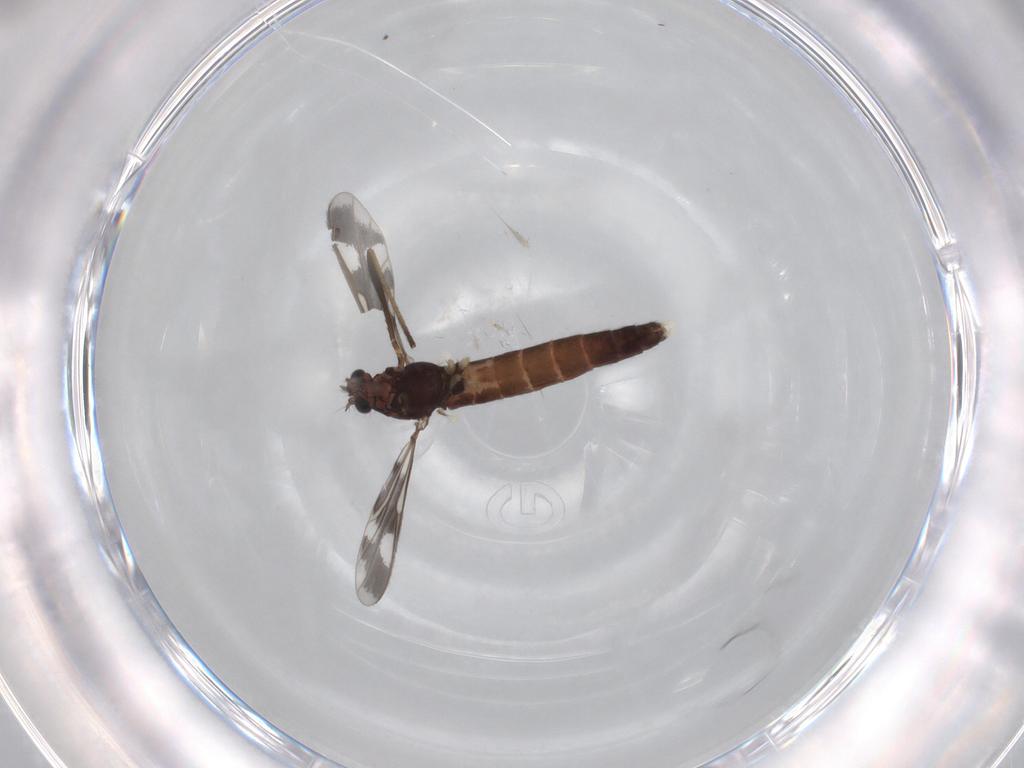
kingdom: Animalia
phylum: Arthropoda
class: Insecta
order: Diptera
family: Chironomidae
